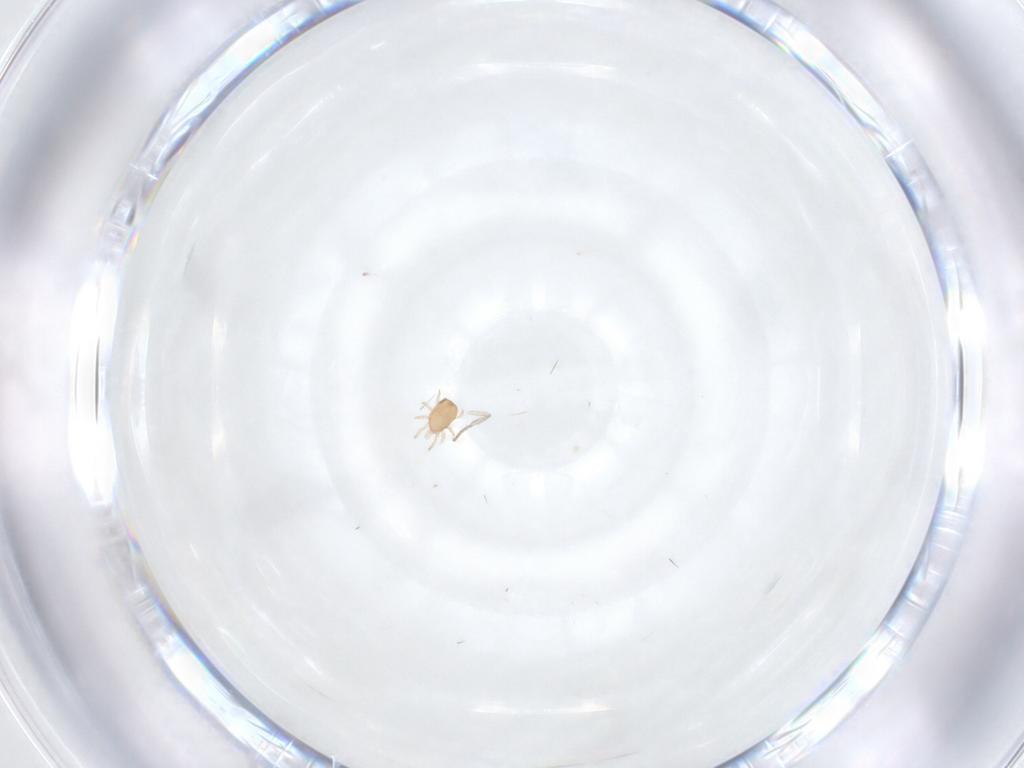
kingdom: Animalia
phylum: Arthropoda
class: Arachnida
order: Mesostigmata
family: Ascidae
